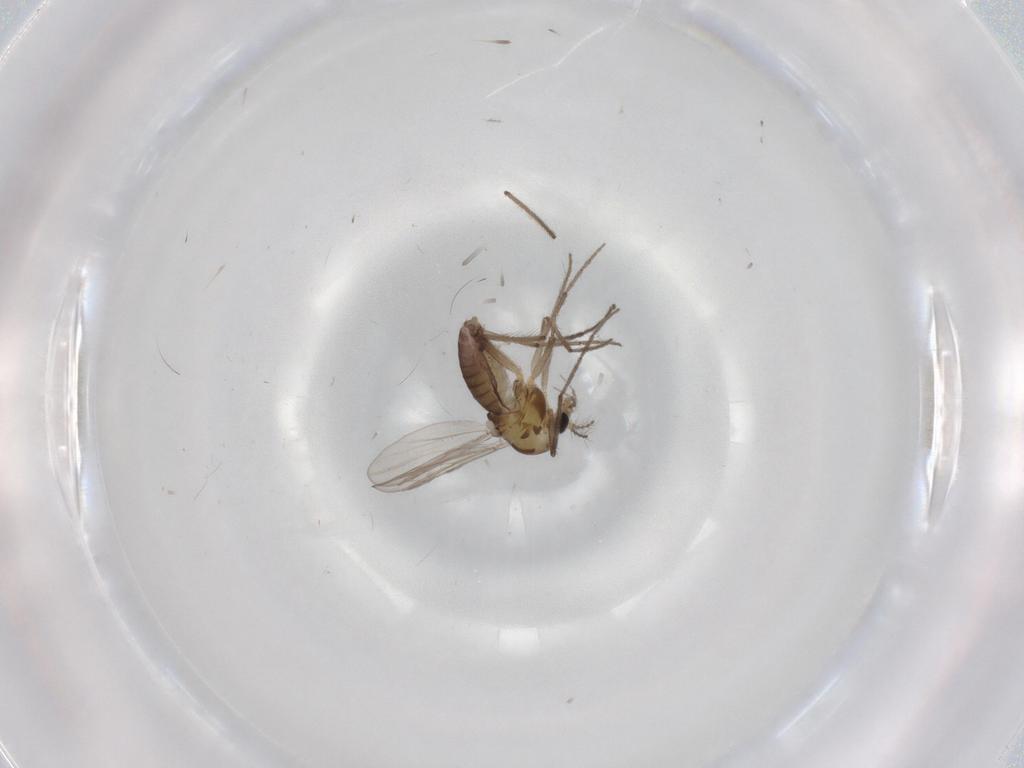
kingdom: Animalia
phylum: Arthropoda
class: Insecta
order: Diptera
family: Chironomidae
